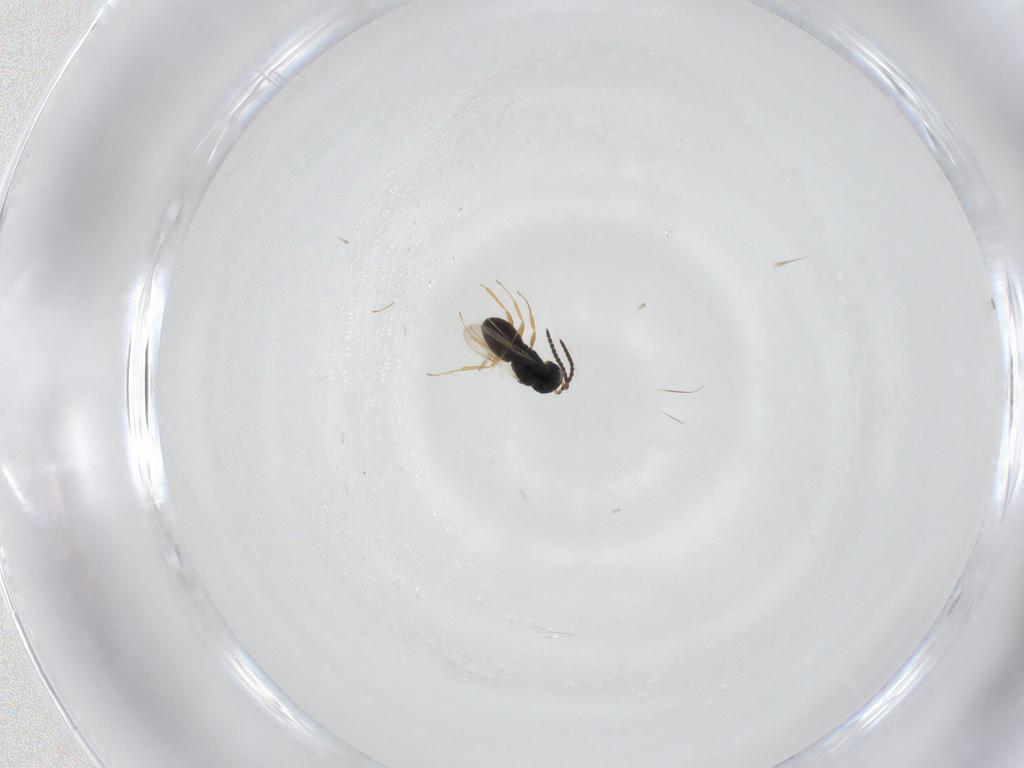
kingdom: Animalia
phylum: Arthropoda
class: Insecta
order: Hymenoptera
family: Scelionidae
